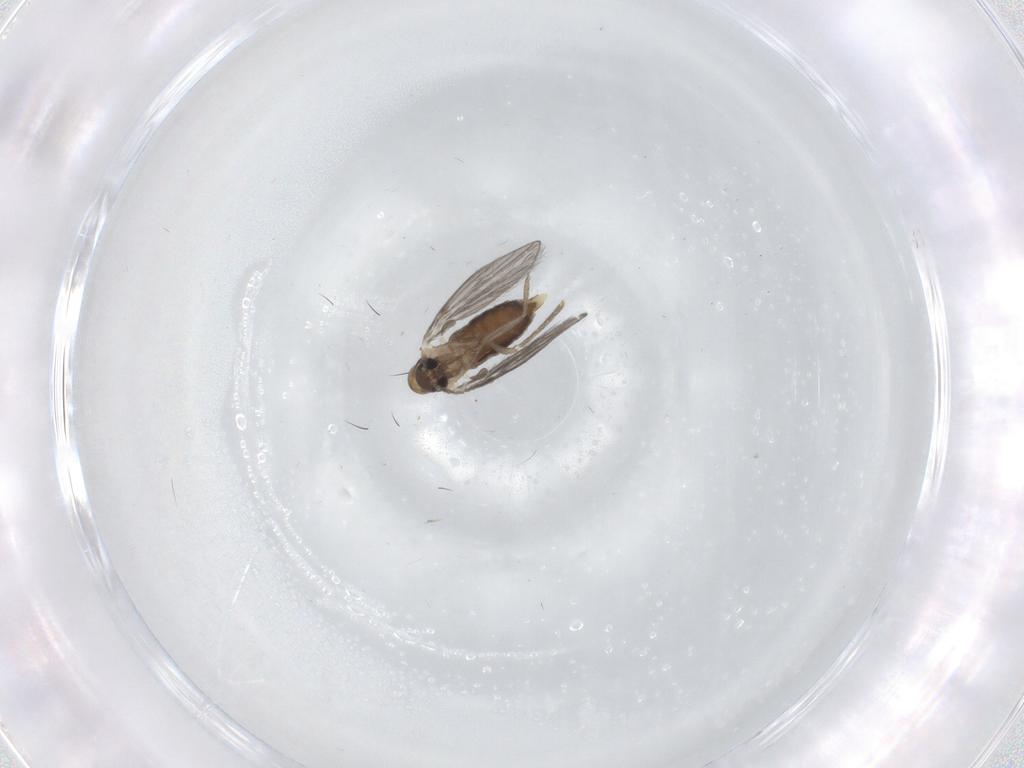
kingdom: Animalia
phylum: Arthropoda
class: Insecta
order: Diptera
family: Cecidomyiidae
